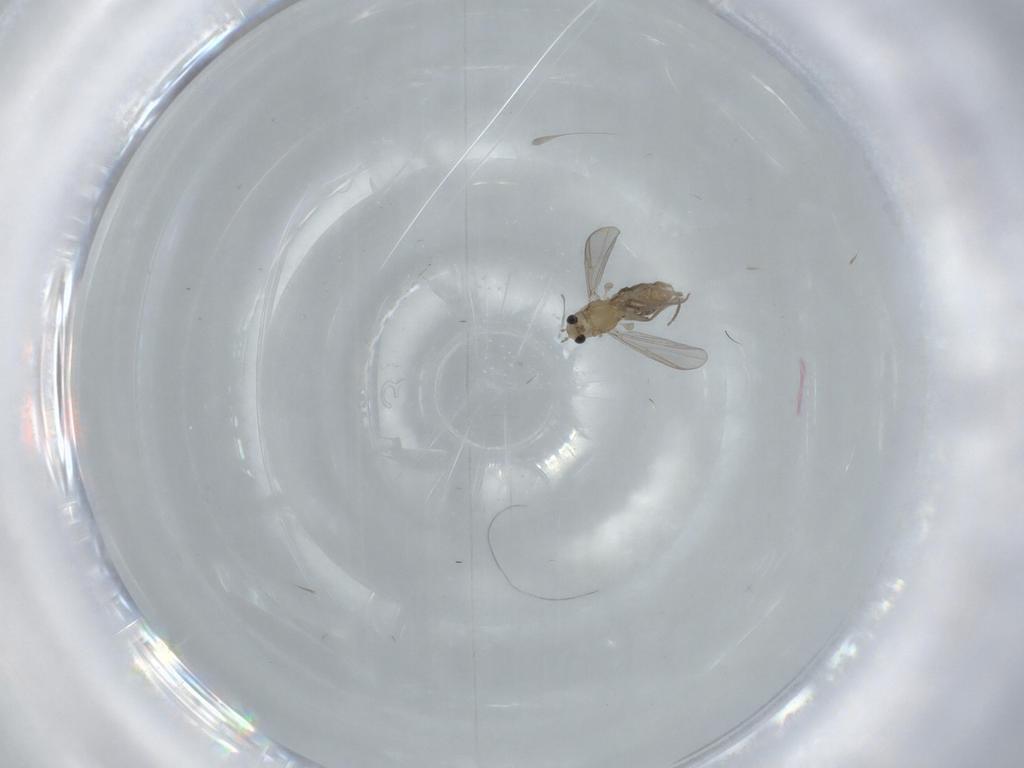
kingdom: Animalia
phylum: Arthropoda
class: Insecta
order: Diptera
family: Chironomidae
